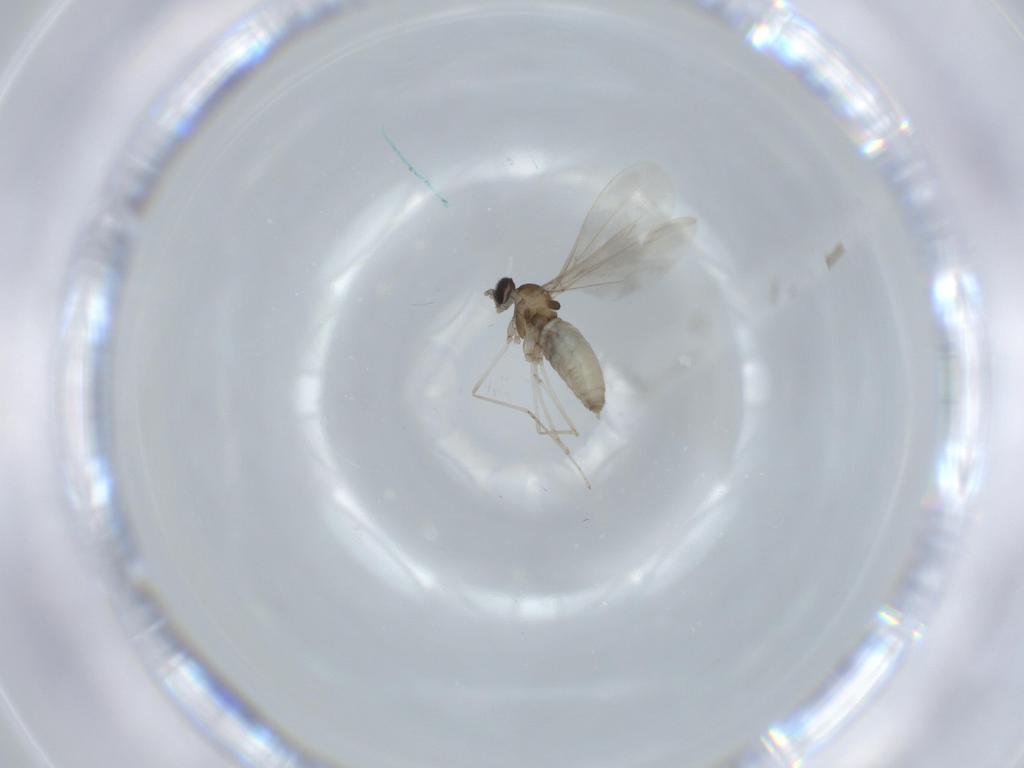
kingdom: Animalia
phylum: Arthropoda
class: Insecta
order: Diptera
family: Cecidomyiidae
